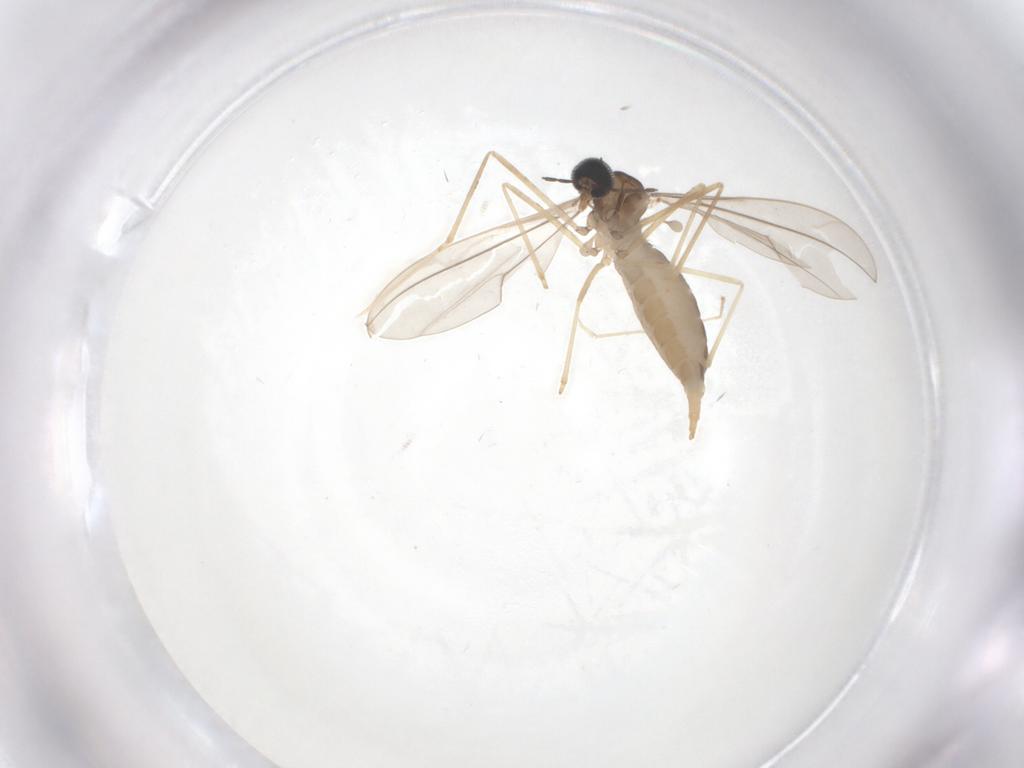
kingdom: Animalia
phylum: Arthropoda
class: Insecta
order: Diptera
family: Cecidomyiidae
